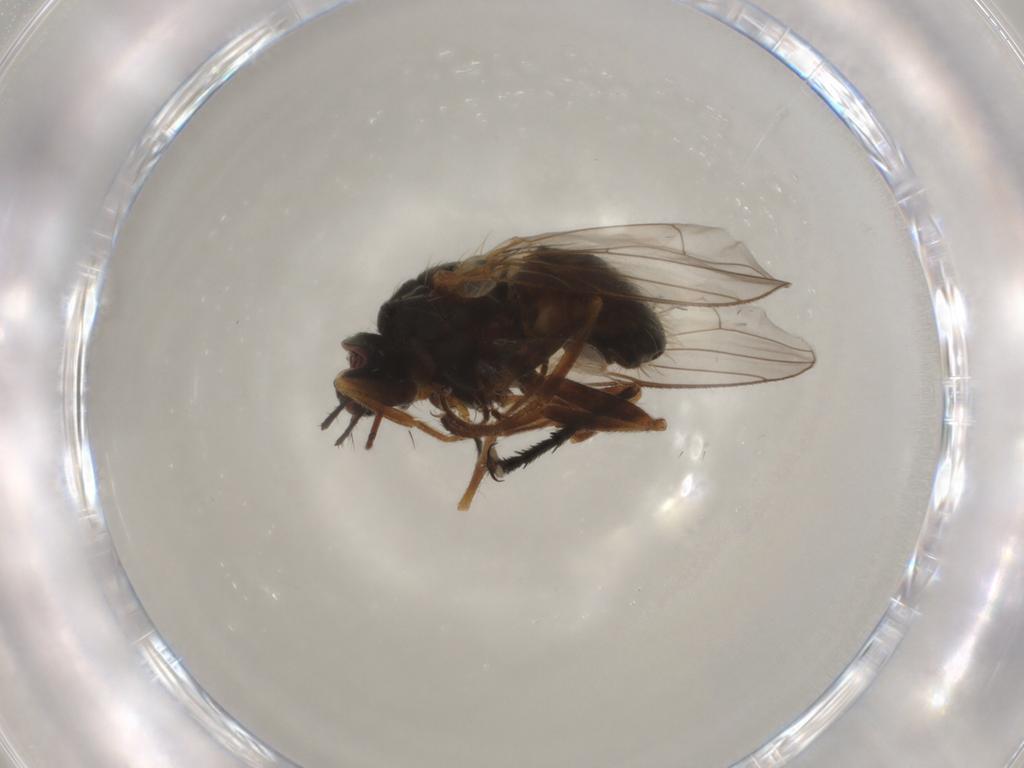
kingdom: Animalia
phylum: Arthropoda
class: Insecta
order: Diptera
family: Muscidae
